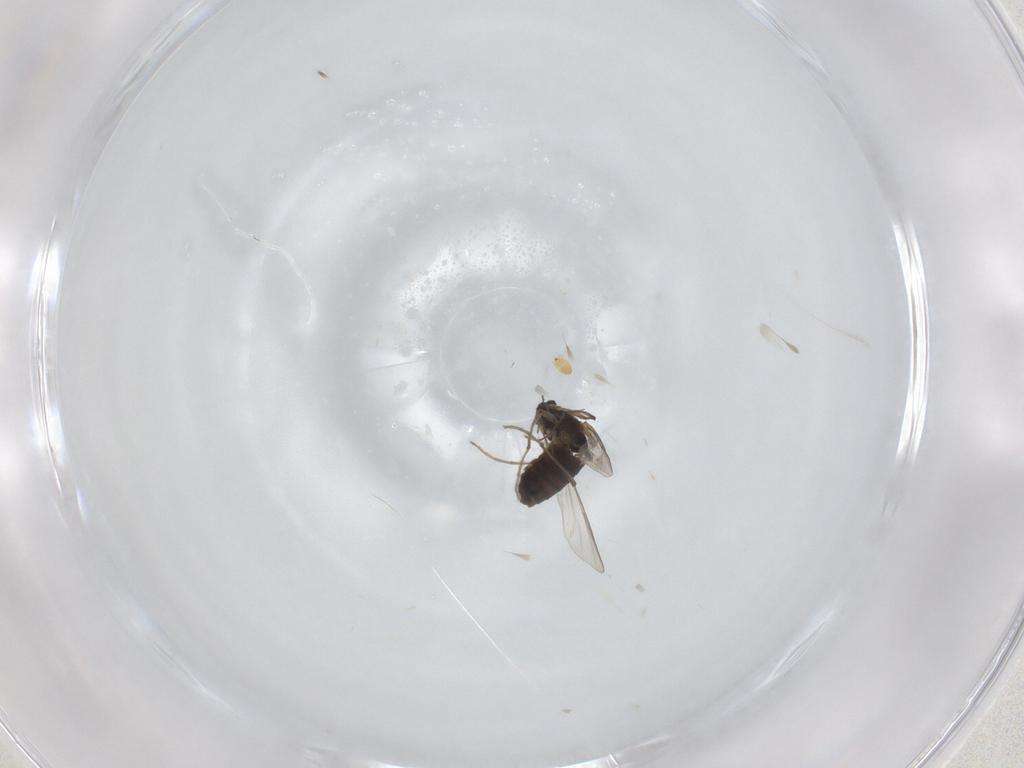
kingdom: Animalia
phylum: Arthropoda
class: Insecta
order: Diptera
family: Chironomidae
